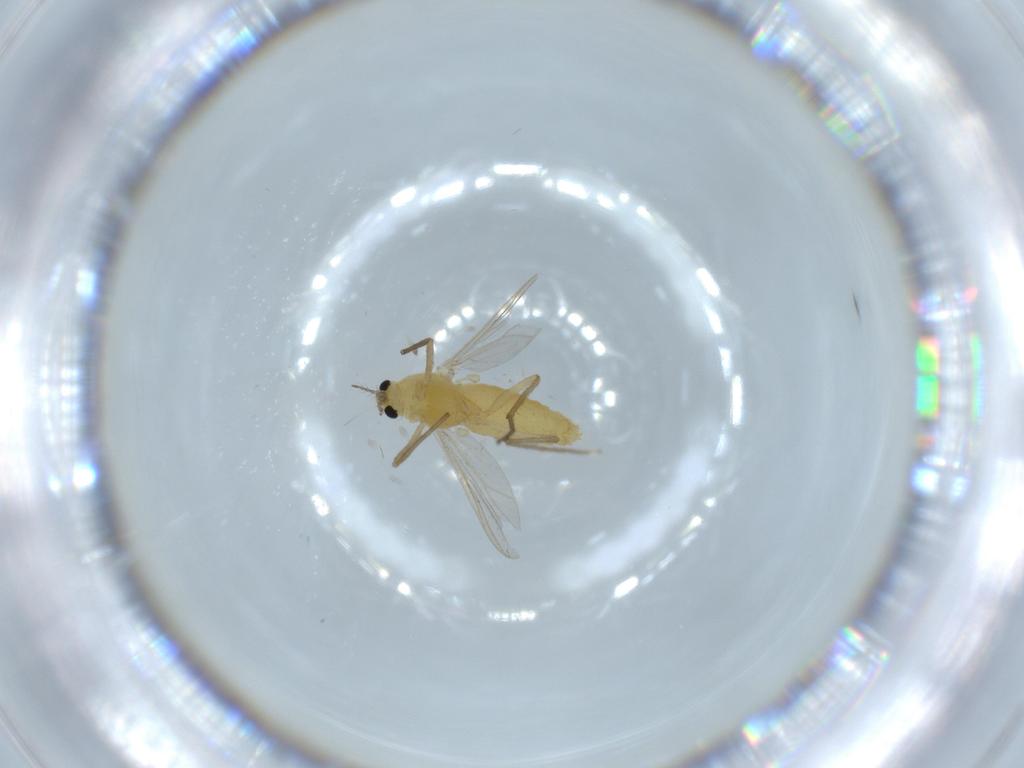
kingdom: Animalia
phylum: Arthropoda
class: Insecta
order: Diptera
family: Chironomidae
